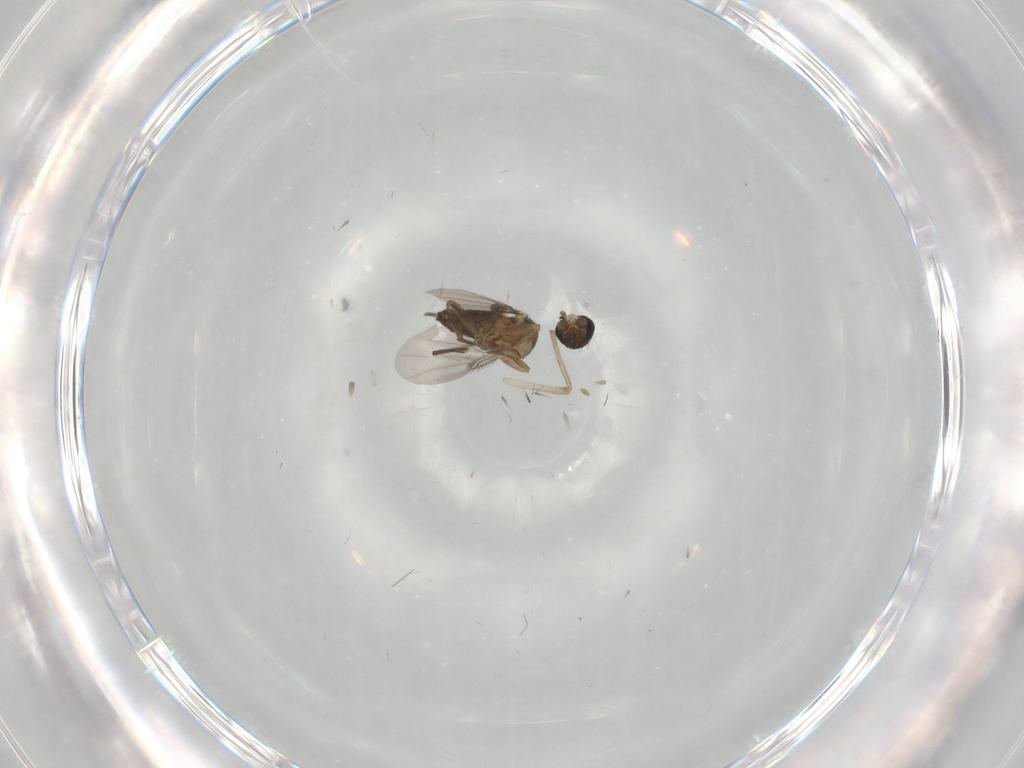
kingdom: Animalia
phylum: Arthropoda
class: Insecta
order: Diptera
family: Phoridae
